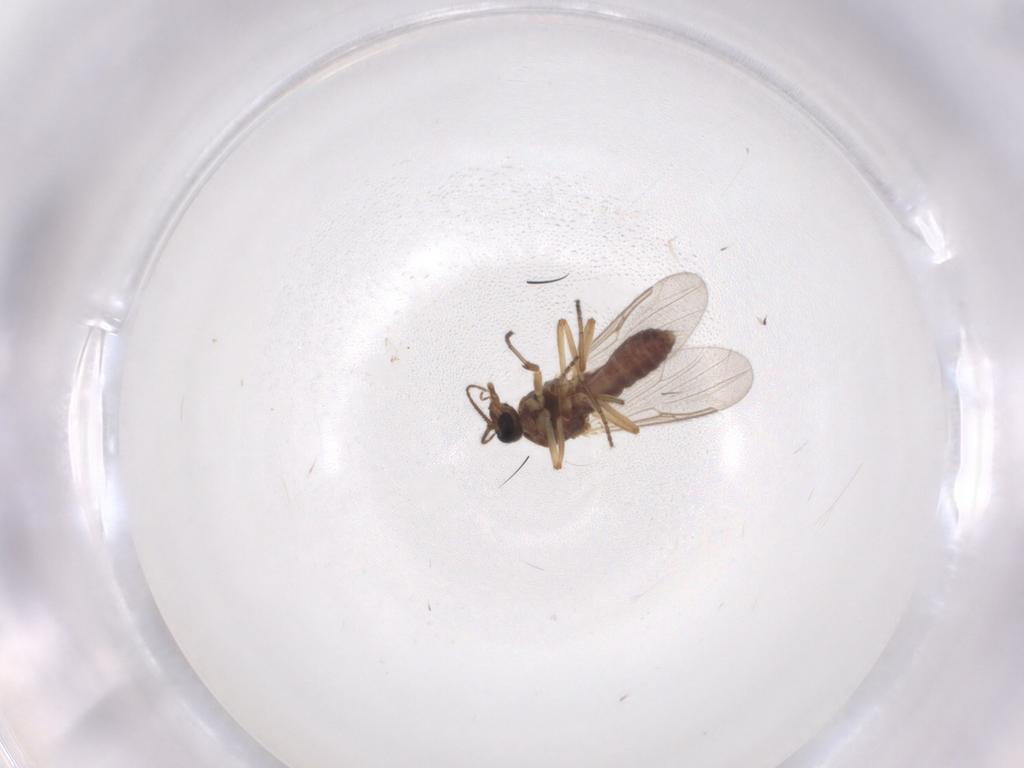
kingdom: Animalia
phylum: Arthropoda
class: Insecta
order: Diptera
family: Ceratopogonidae
